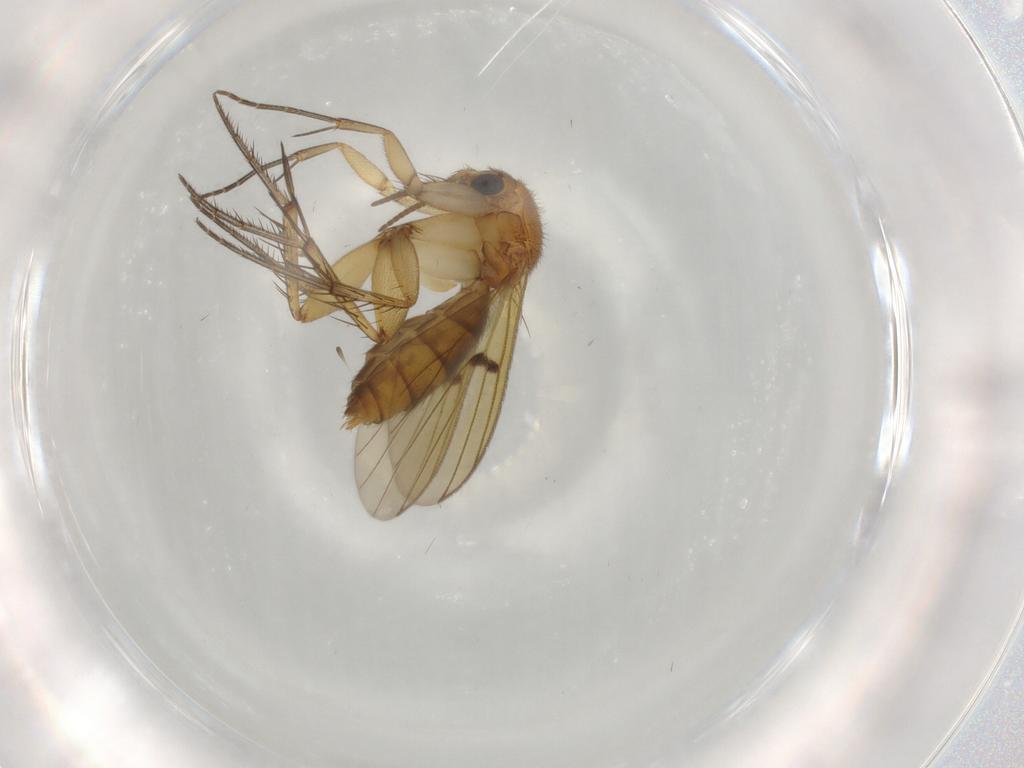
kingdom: Animalia
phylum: Arthropoda
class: Insecta
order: Diptera
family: Mycetophilidae
